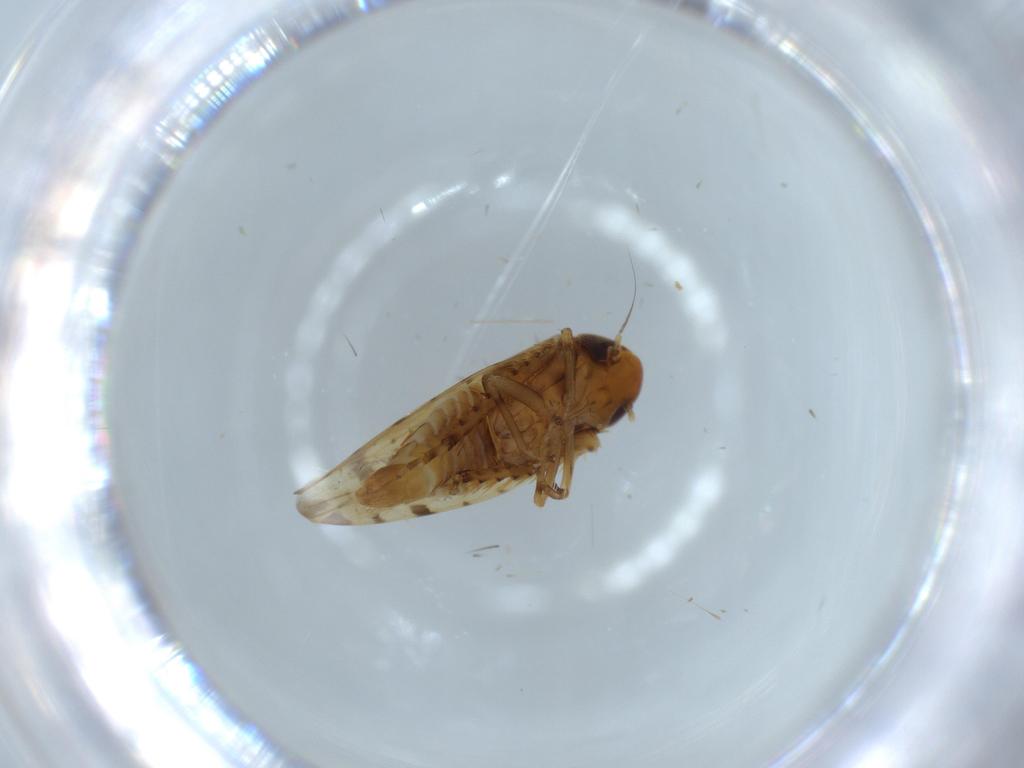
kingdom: Animalia
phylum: Arthropoda
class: Insecta
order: Hemiptera
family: Cicadellidae
